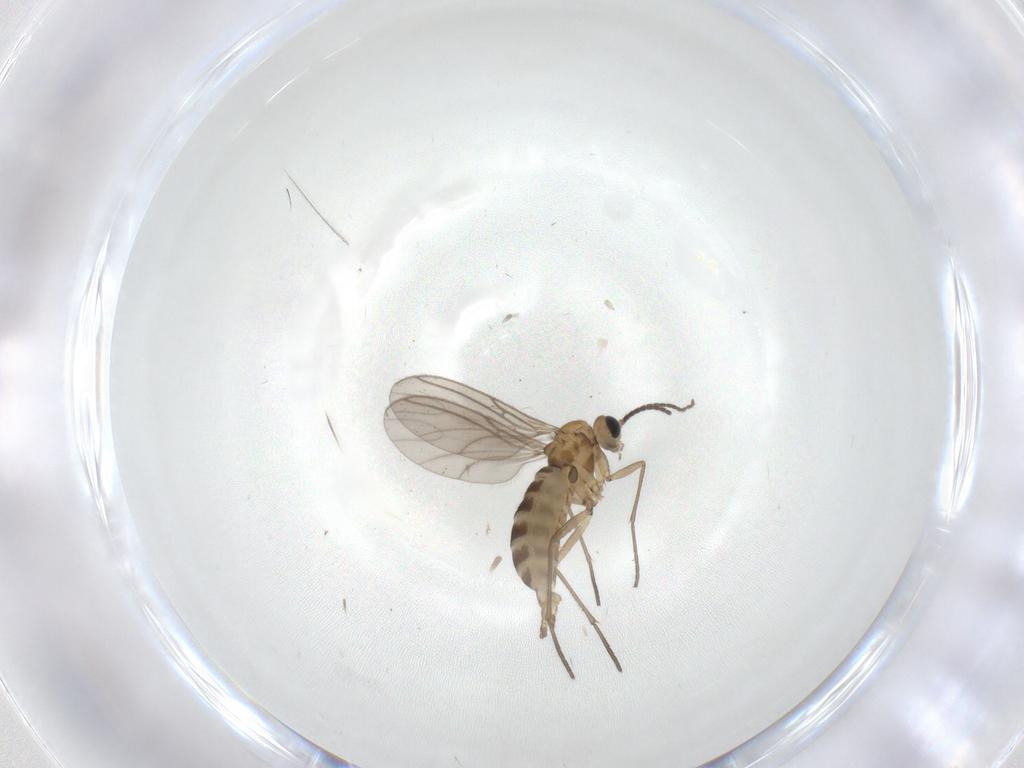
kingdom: Animalia
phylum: Arthropoda
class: Insecta
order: Diptera
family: Sciaridae
